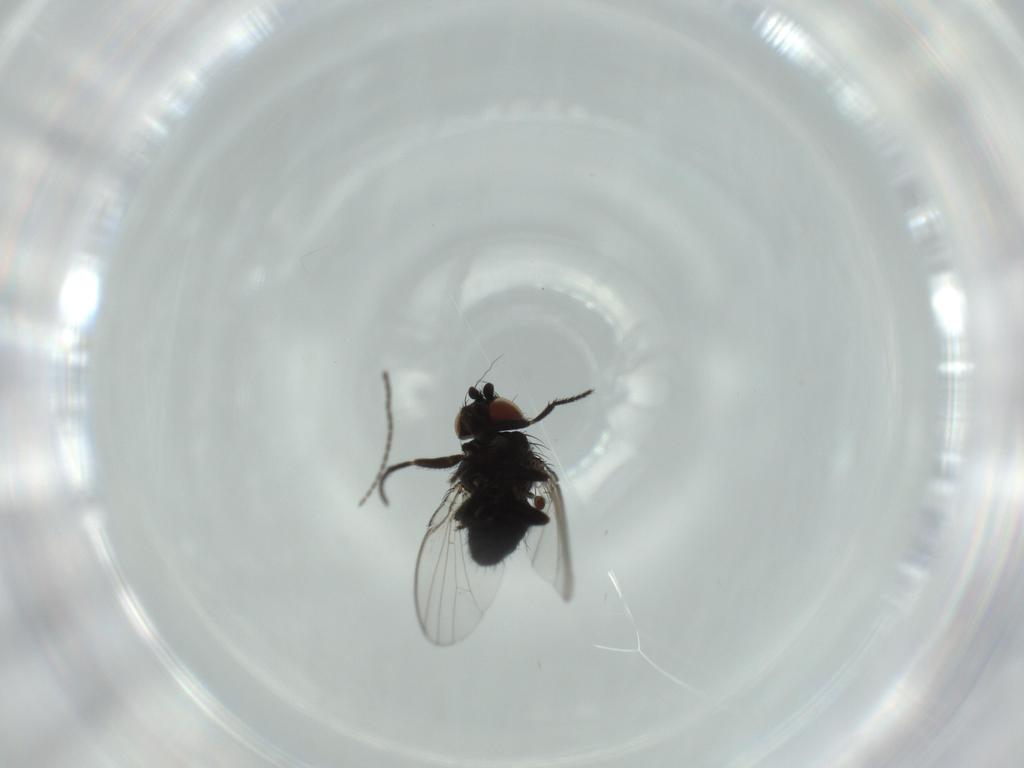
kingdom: Animalia
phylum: Arthropoda
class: Insecta
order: Diptera
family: Milichiidae
